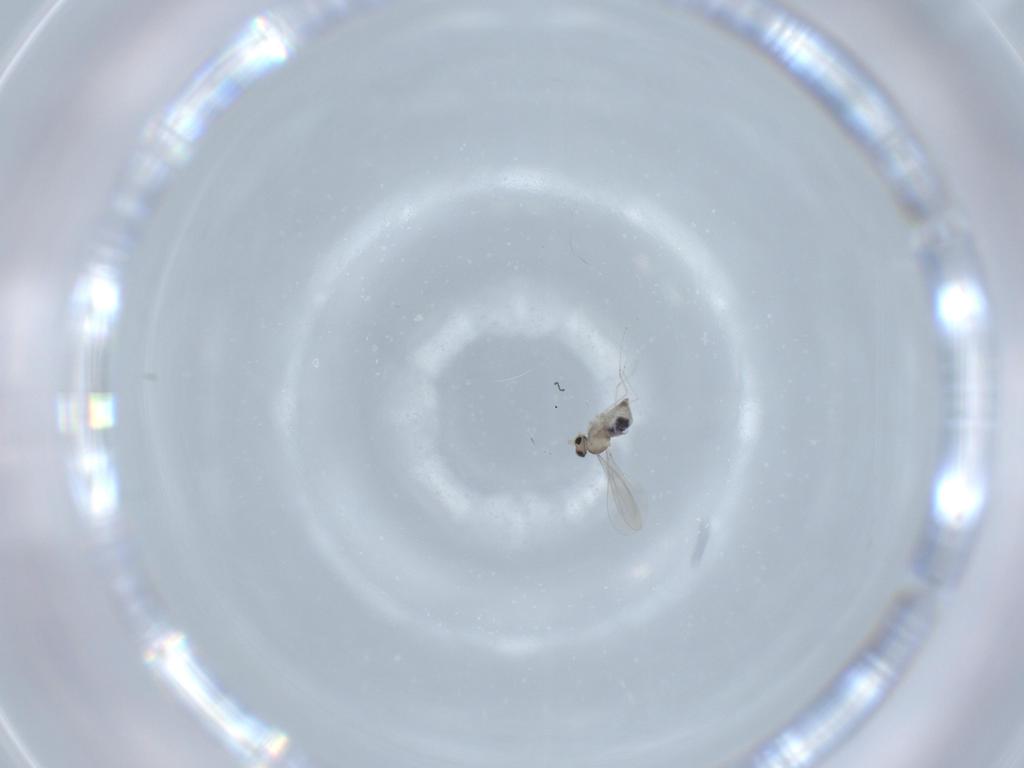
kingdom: Animalia
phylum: Arthropoda
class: Insecta
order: Diptera
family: Cecidomyiidae
